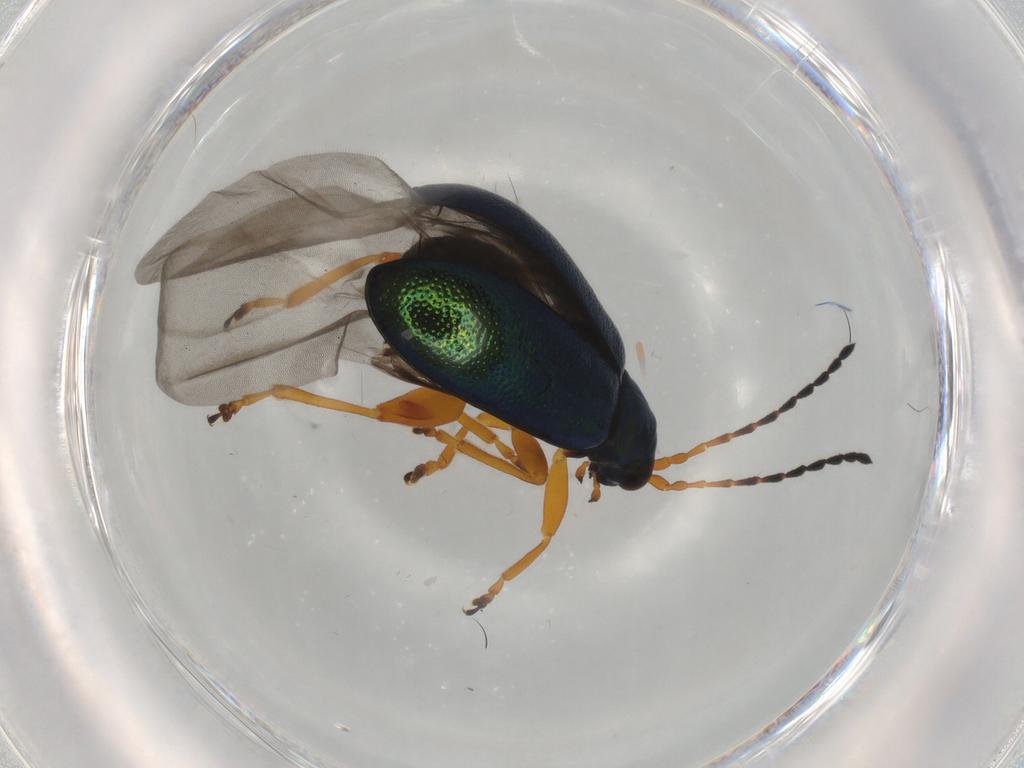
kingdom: Animalia
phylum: Arthropoda
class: Insecta
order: Coleoptera
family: Chrysomelidae
